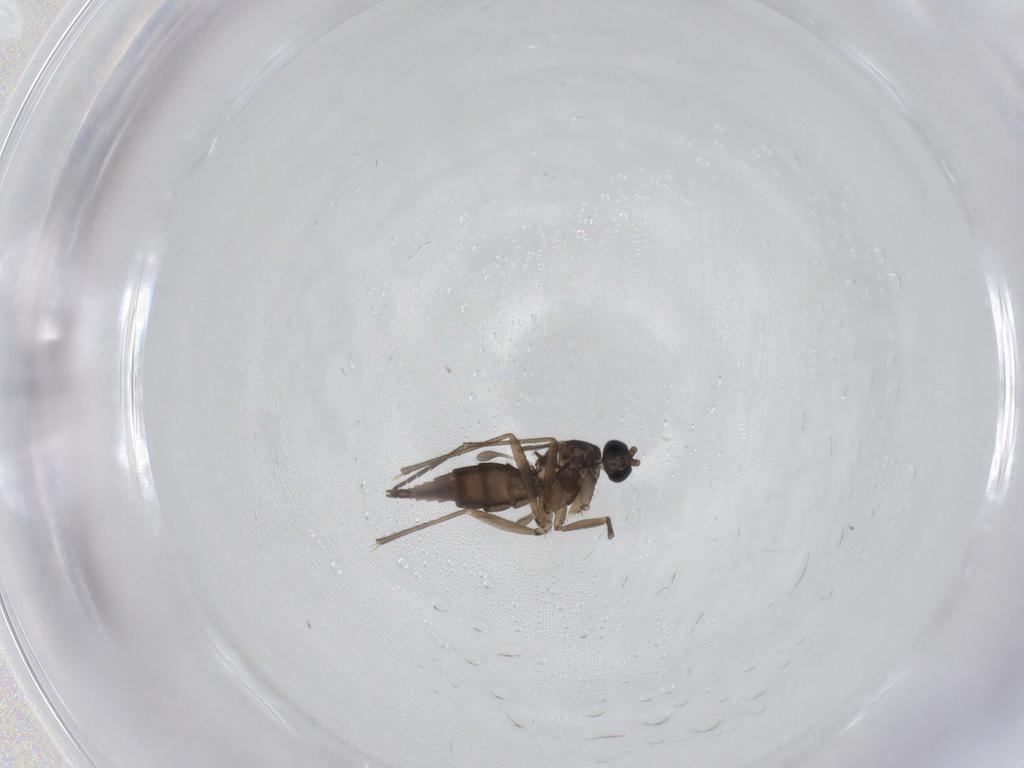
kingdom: Animalia
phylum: Arthropoda
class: Insecta
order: Diptera
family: Sciaridae
